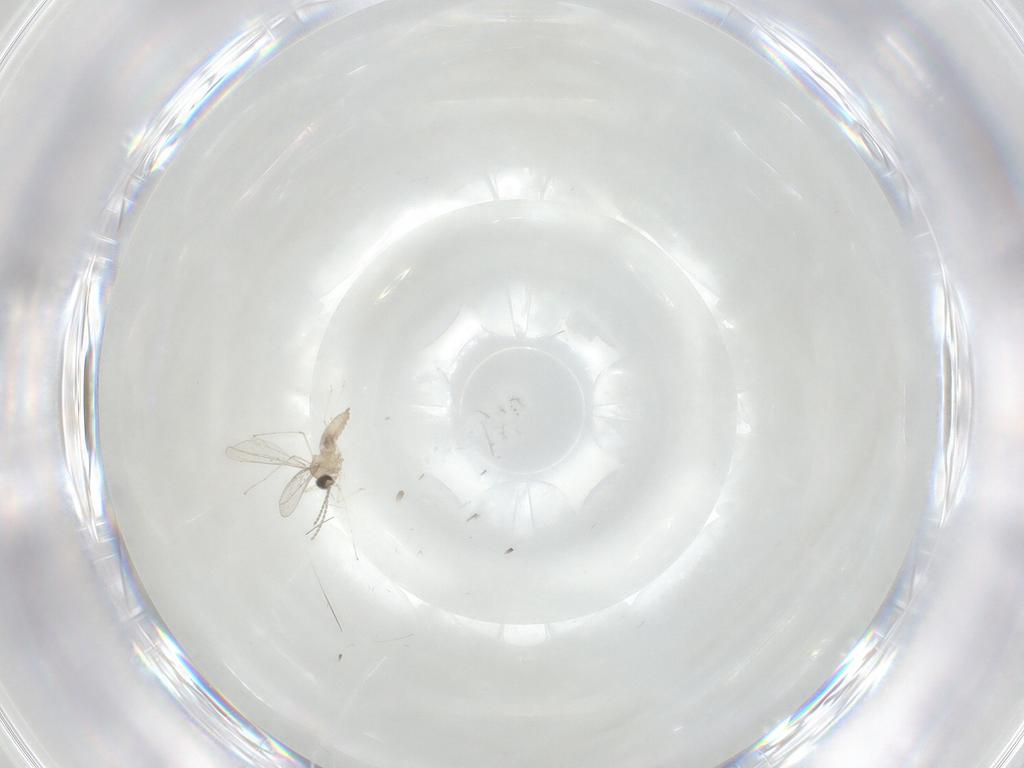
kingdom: Animalia
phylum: Arthropoda
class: Insecta
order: Diptera
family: Cecidomyiidae
